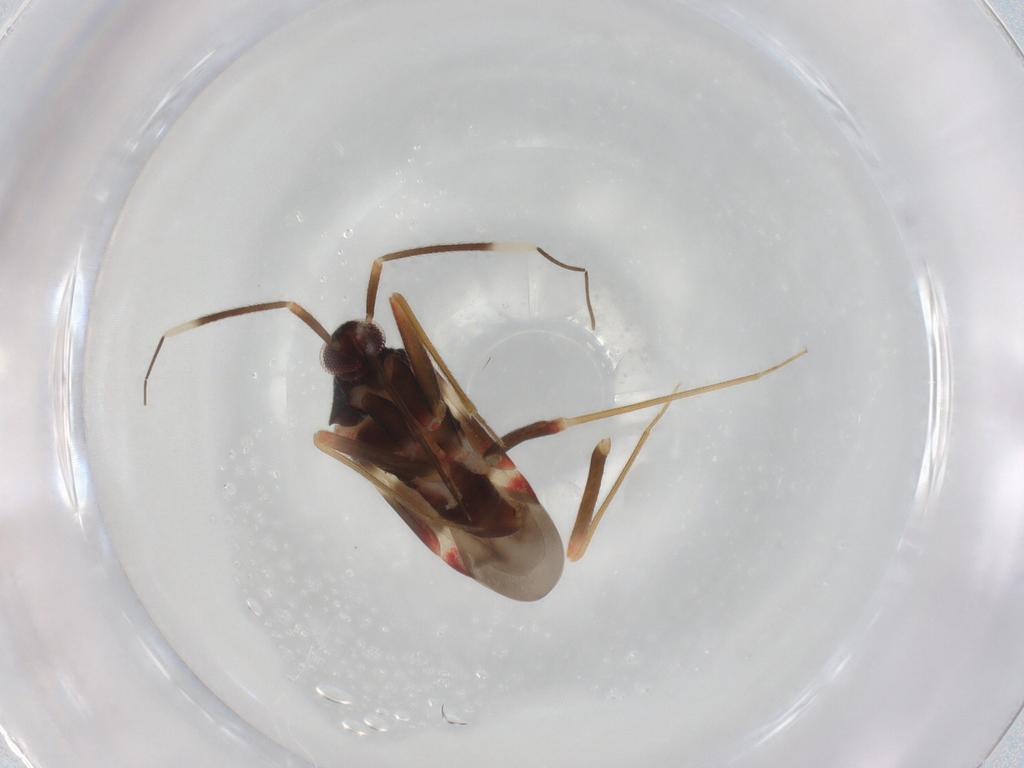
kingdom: Animalia
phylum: Arthropoda
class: Insecta
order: Hemiptera
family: Miridae
